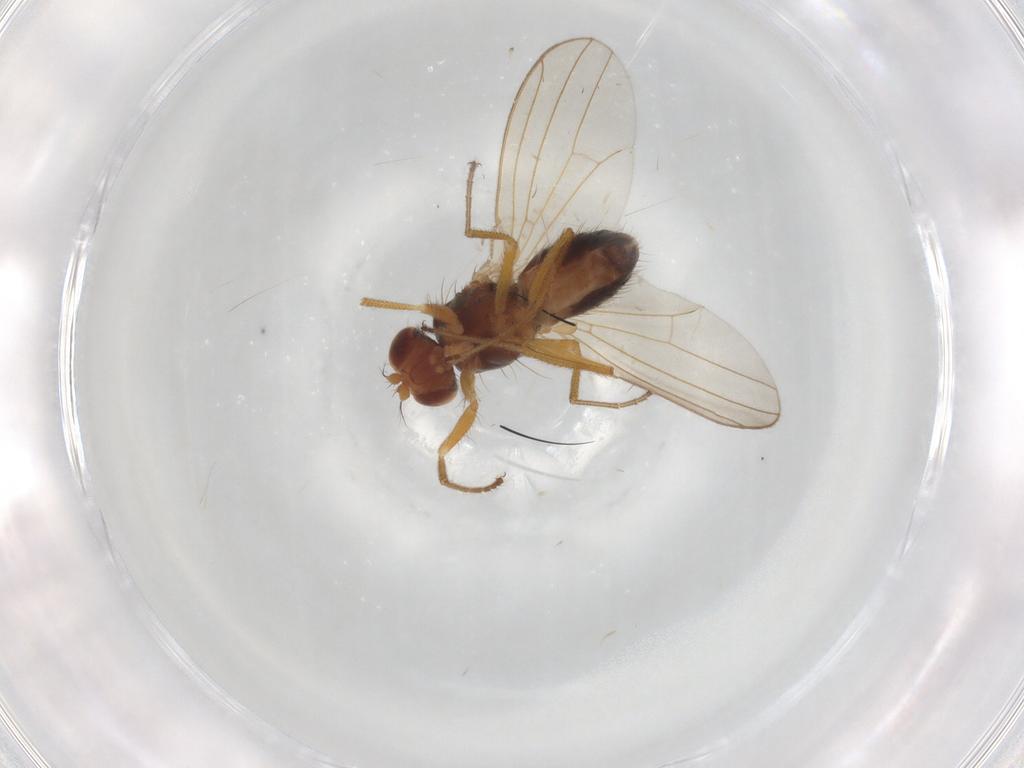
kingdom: Animalia
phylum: Arthropoda
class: Insecta
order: Diptera
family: Drosophilidae
